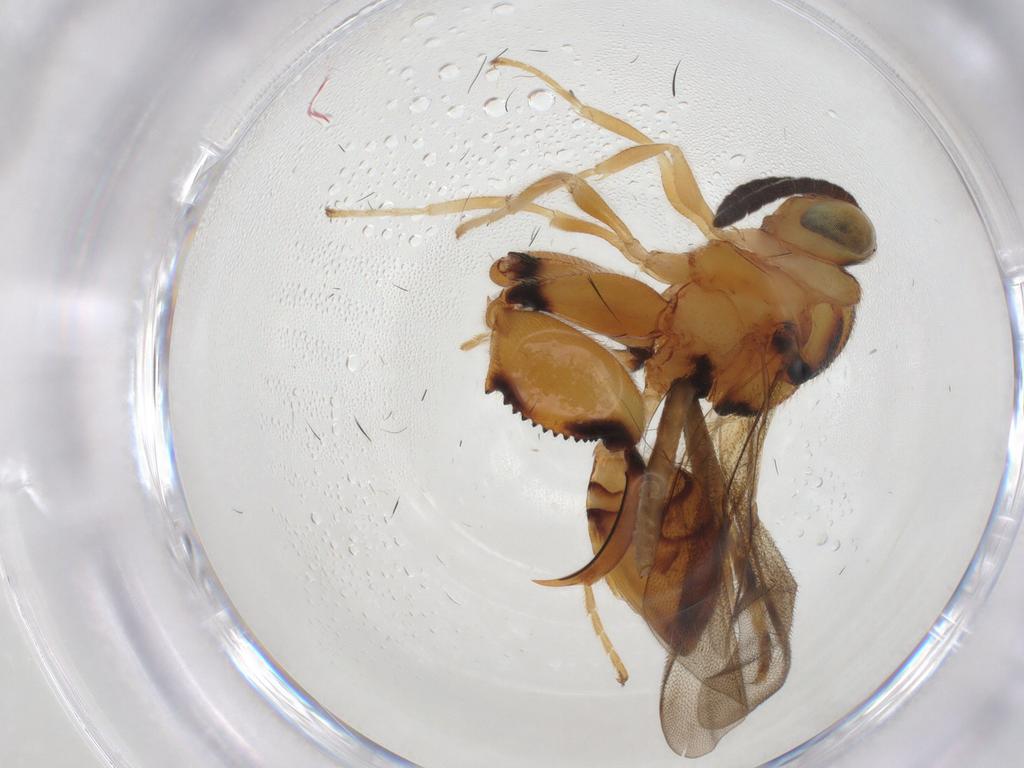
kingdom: Animalia
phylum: Arthropoda
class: Insecta
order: Hymenoptera
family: Chalcididae
